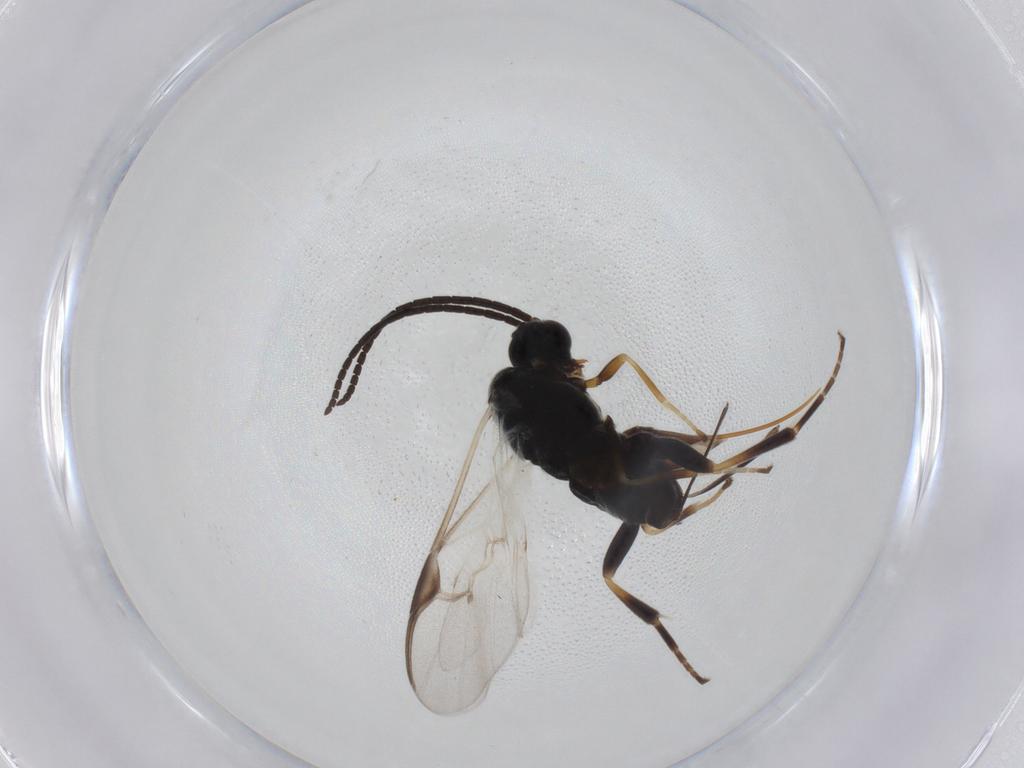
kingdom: Animalia
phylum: Arthropoda
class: Insecta
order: Hymenoptera
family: Braconidae
